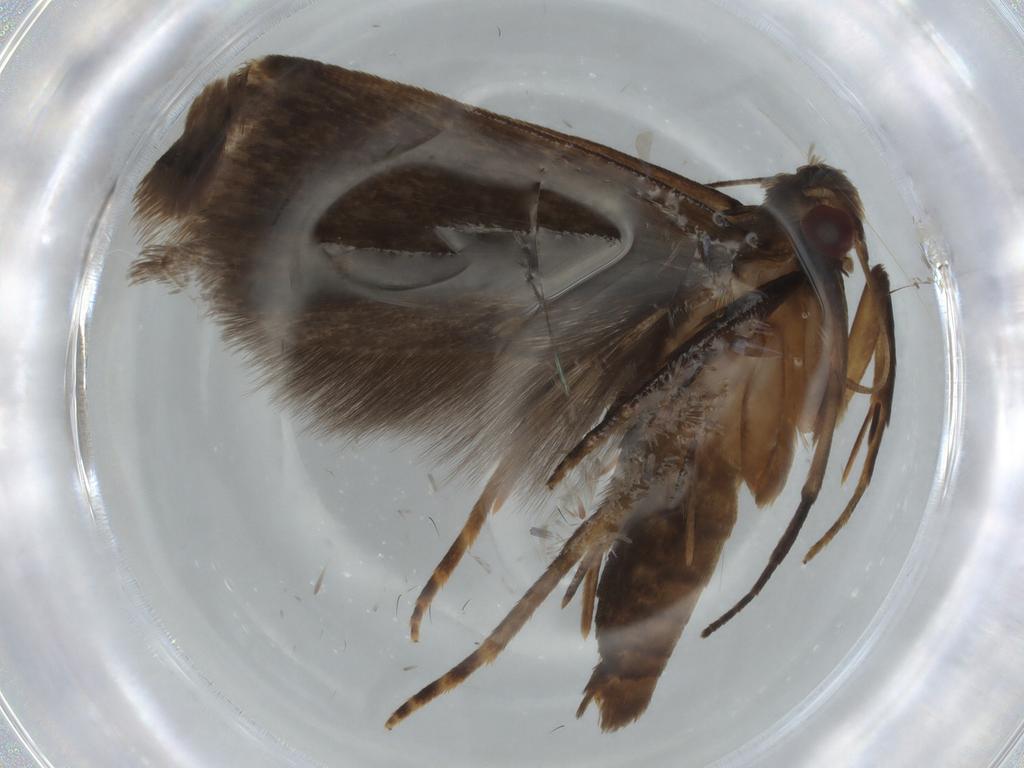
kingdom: Animalia
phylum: Arthropoda
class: Insecta
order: Lepidoptera
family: Gelechiidae
